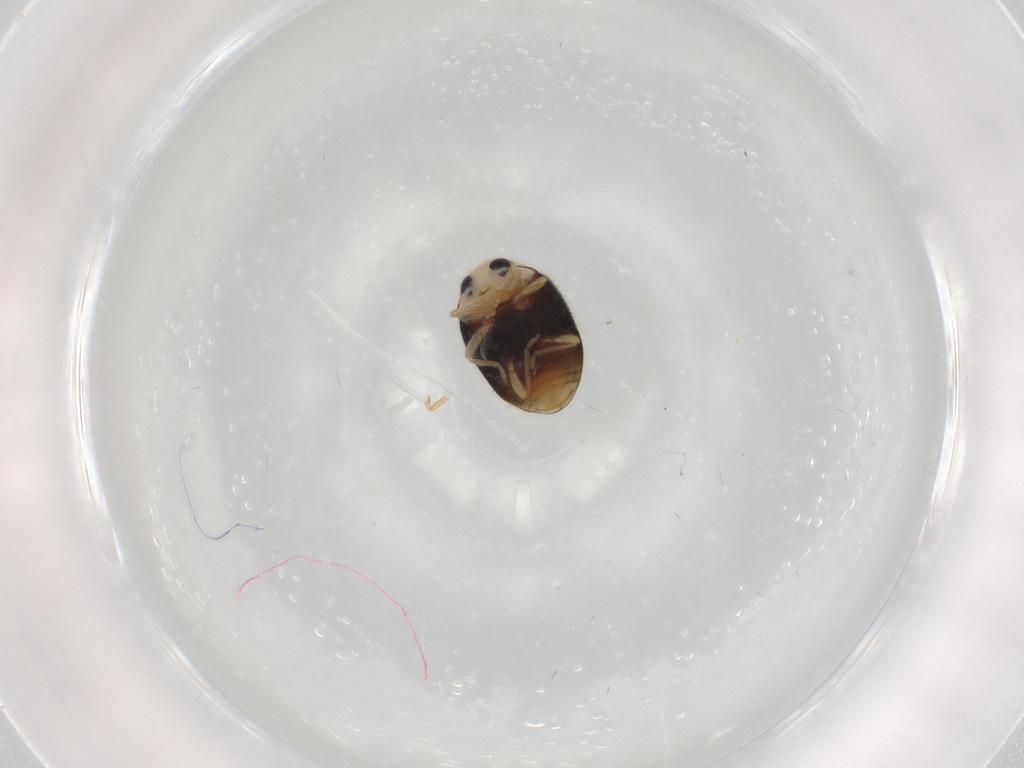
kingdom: Animalia
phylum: Arthropoda
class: Insecta
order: Coleoptera
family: Coccinellidae
